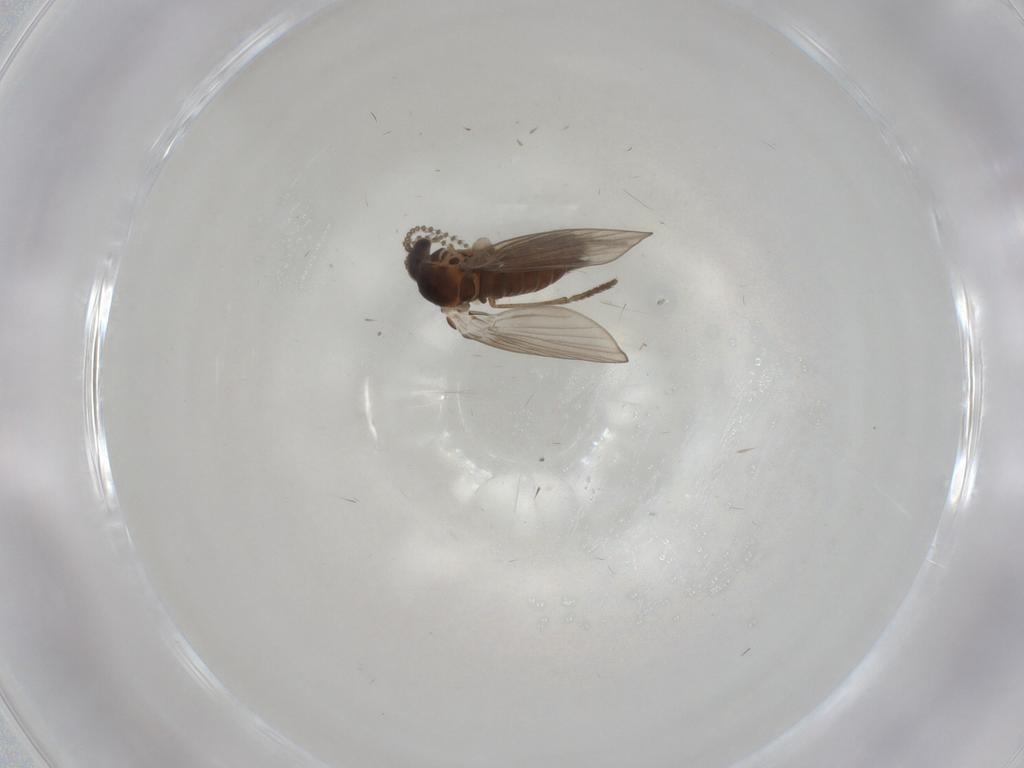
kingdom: Animalia
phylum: Arthropoda
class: Insecta
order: Diptera
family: Psychodidae
